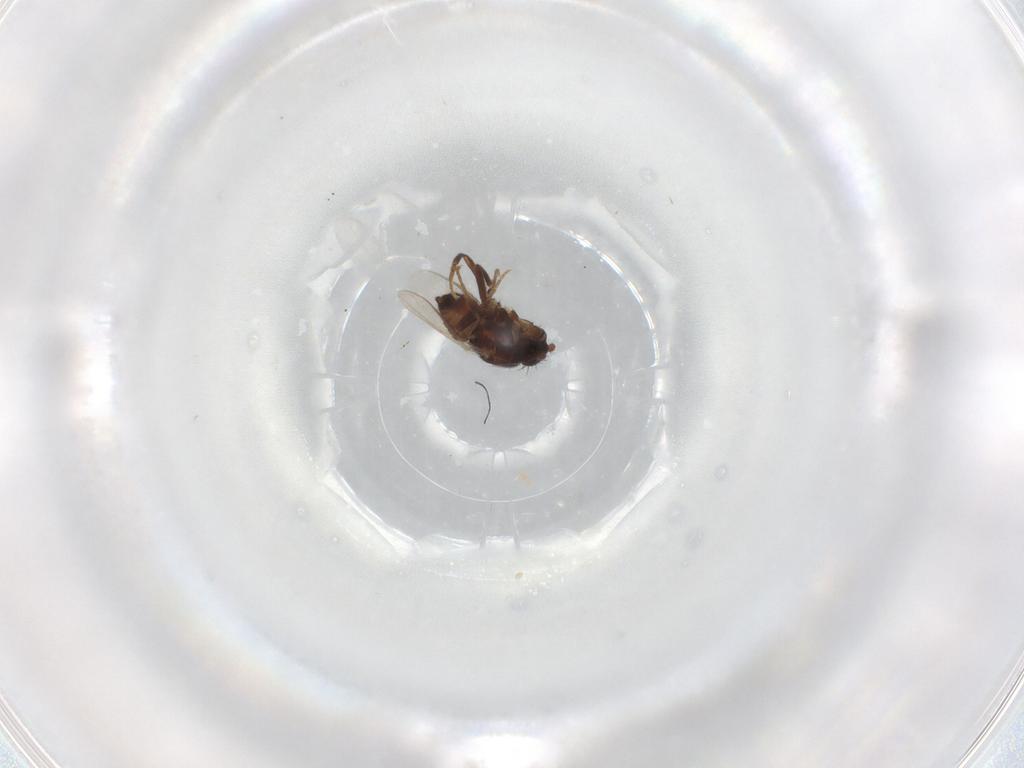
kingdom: Animalia
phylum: Arthropoda
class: Insecta
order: Diptera
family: Sphaeroceridae
